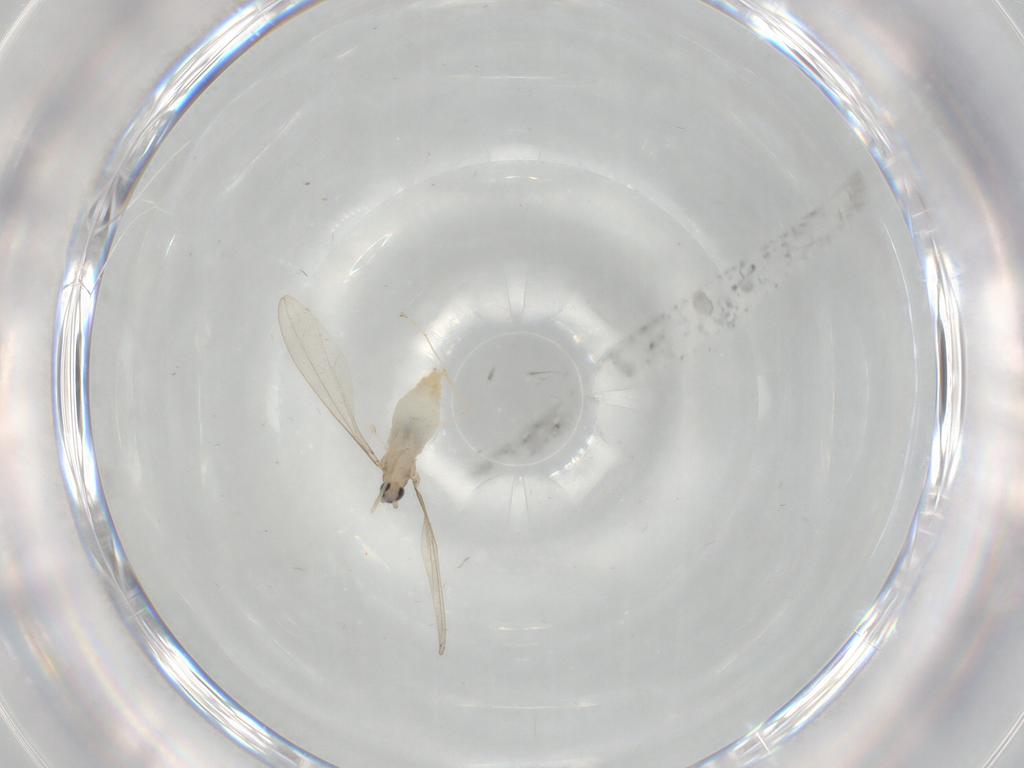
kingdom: Animalia
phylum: Arthropoda
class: Insecta
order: Diptera
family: Cecidomyiidae
